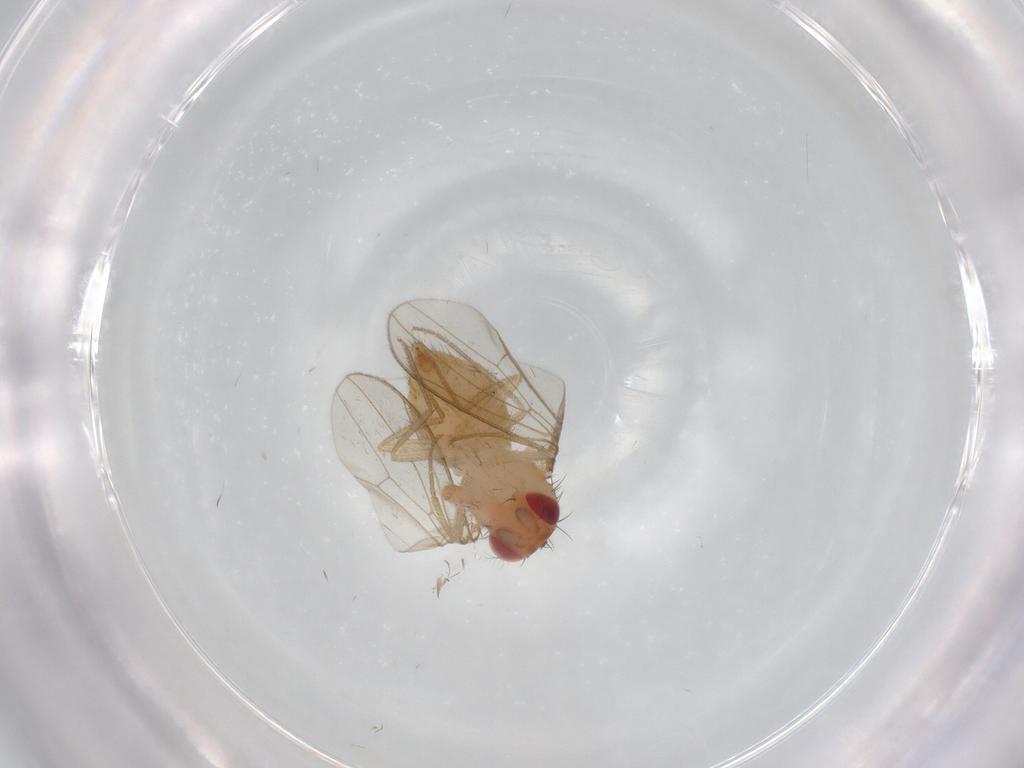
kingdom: Animalia
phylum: Arthropoda
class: Insecta
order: Diptera
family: Drosophilidae
